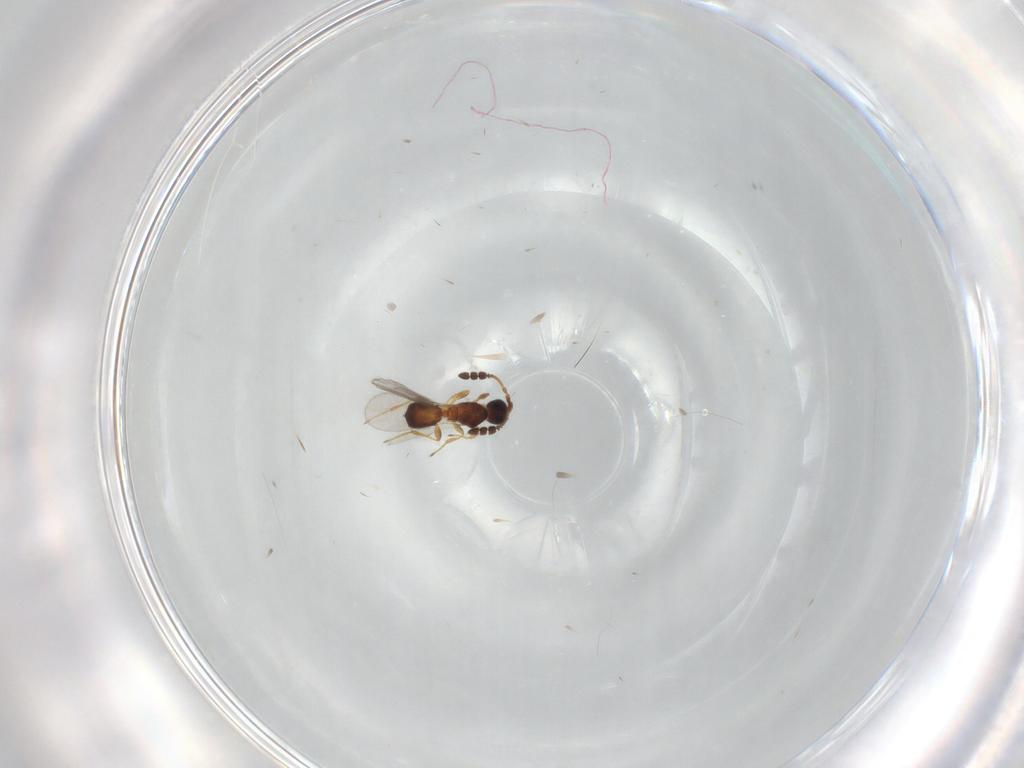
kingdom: Animalia
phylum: Arthropoda
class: Insecta
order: Hymenoptera
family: Diapriidae
